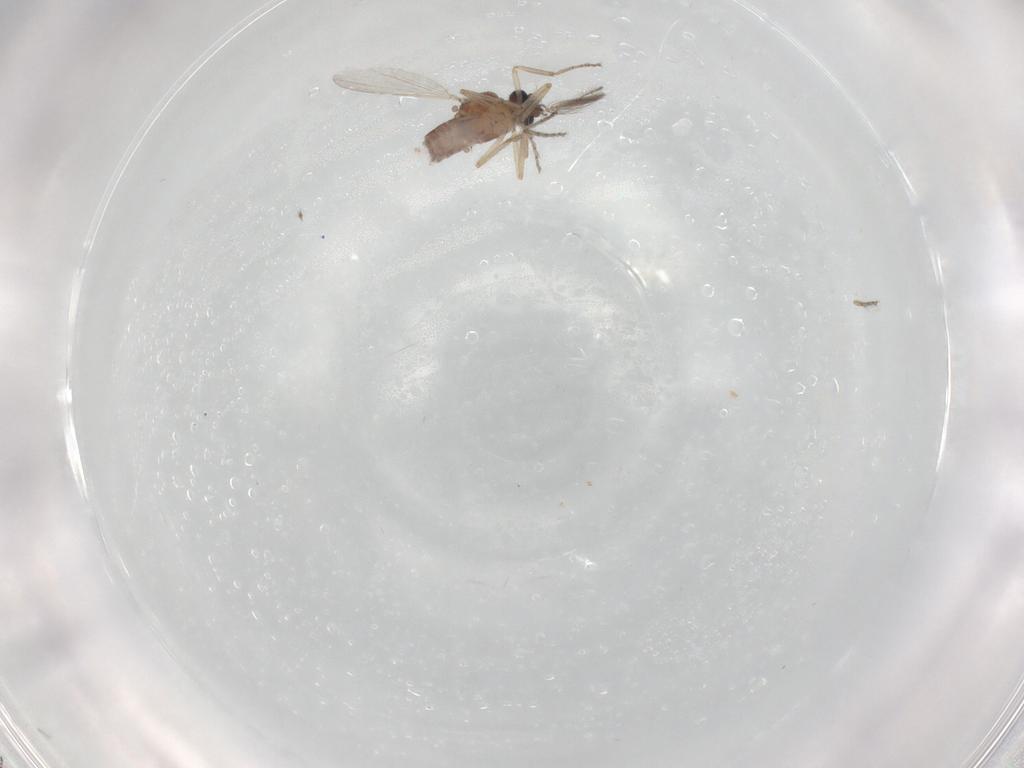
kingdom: Animalia
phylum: Arthropoda
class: Insecta
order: Diptera
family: Ceratopogonidae
